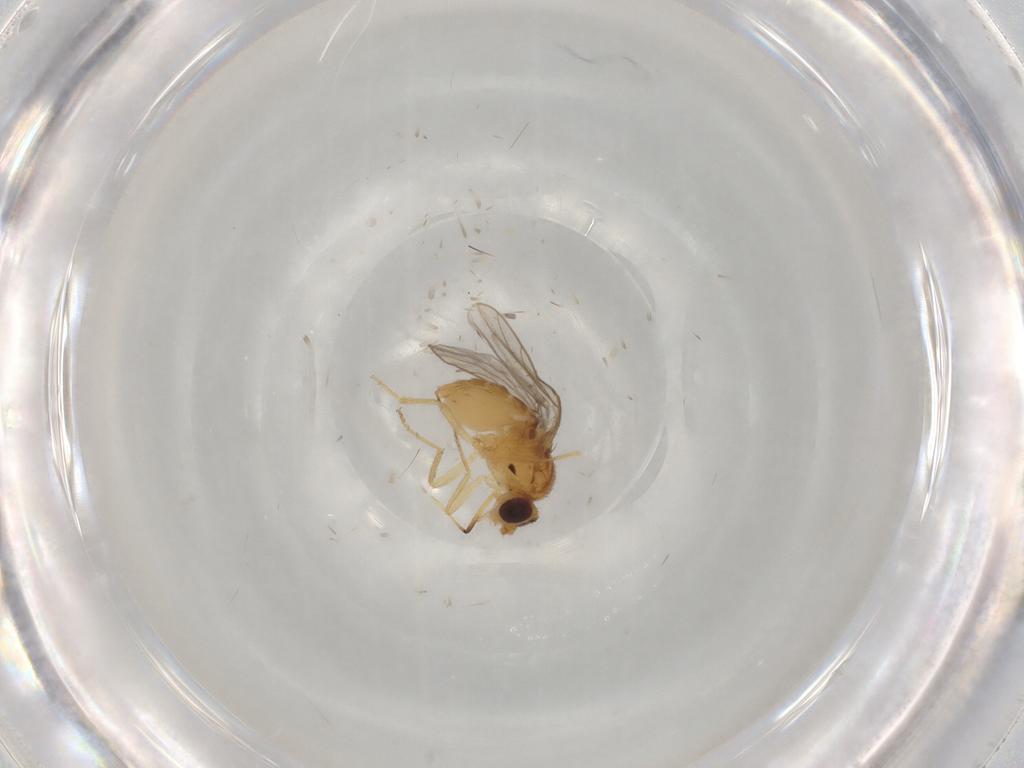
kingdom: Animalia
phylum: Arthropoda
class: Insecta
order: Diptera
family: Chloropidae
